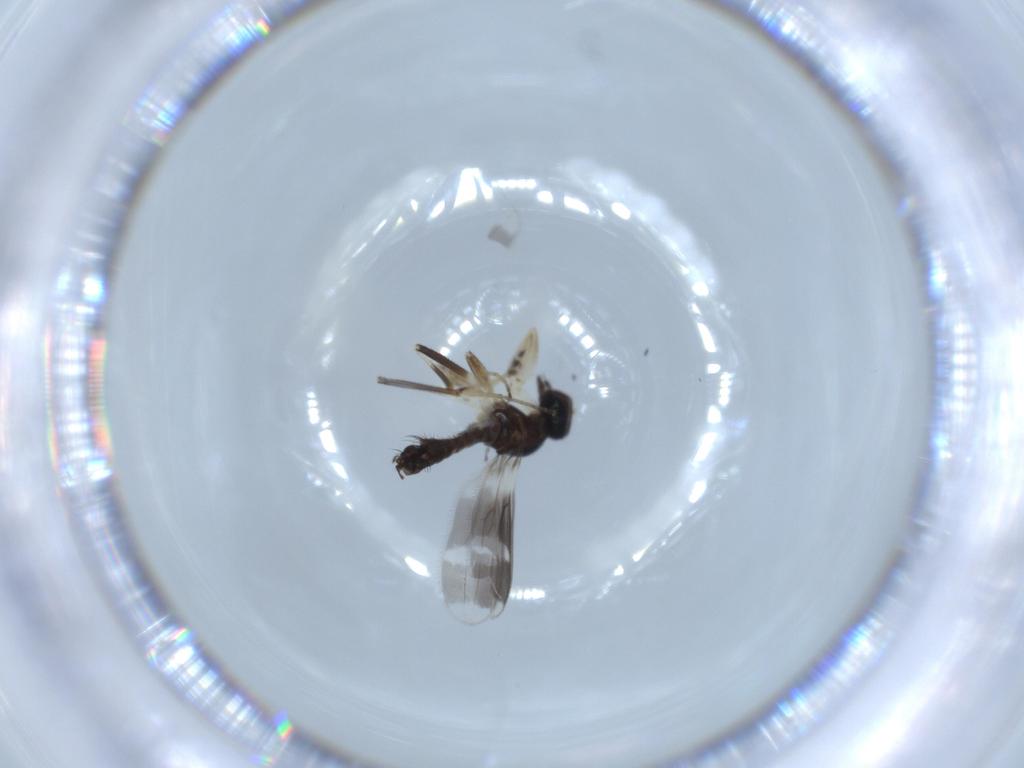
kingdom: Animalia
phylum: Arthropoda
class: Insecta
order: Diptera
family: Hybotidae
